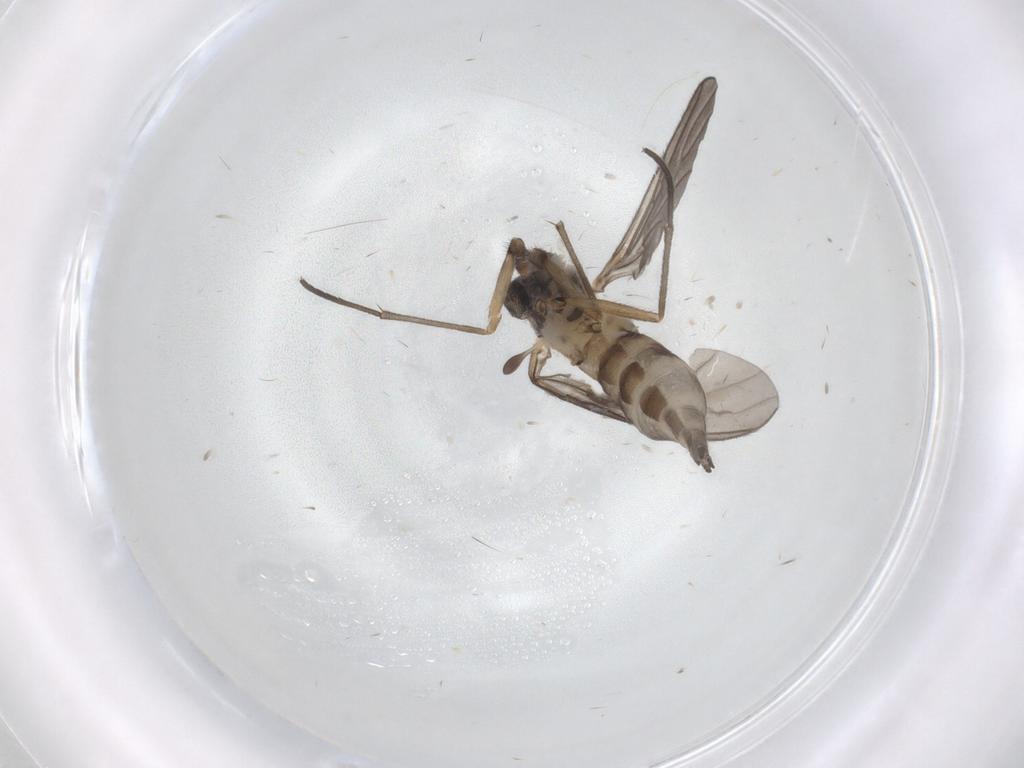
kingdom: Animalia
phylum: Arthropoda
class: Insecta
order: Diptera
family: Sciaridae
